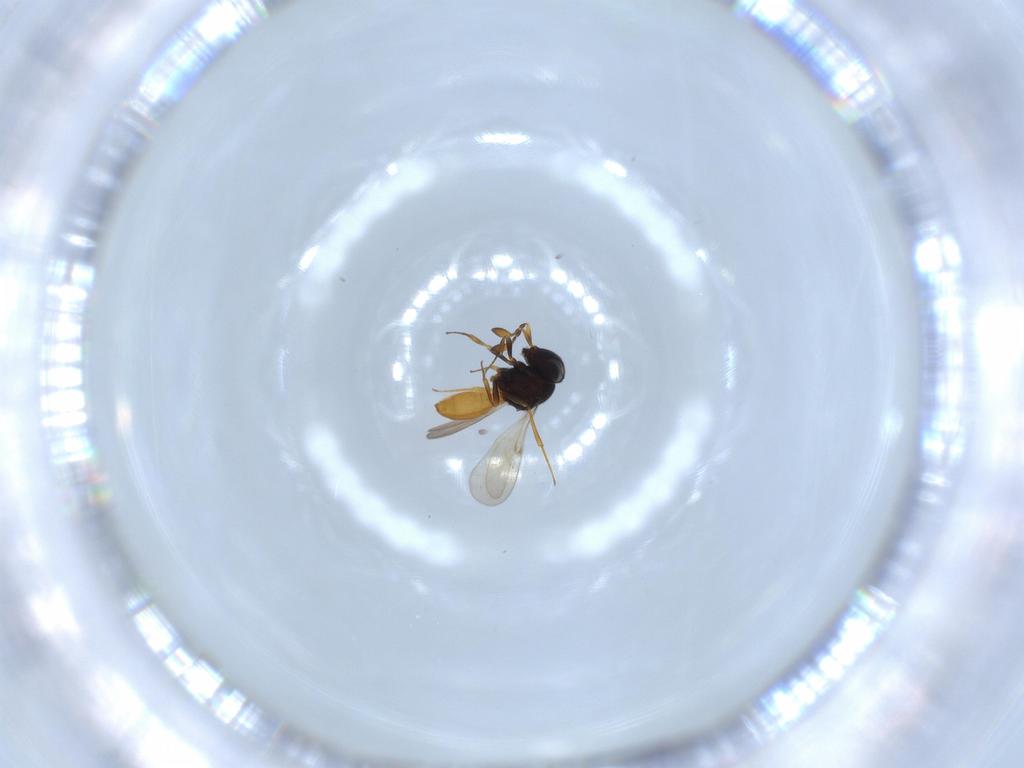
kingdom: Animalia
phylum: Arthropoda
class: Insecta
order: Hymenoptera
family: Scelionidae
